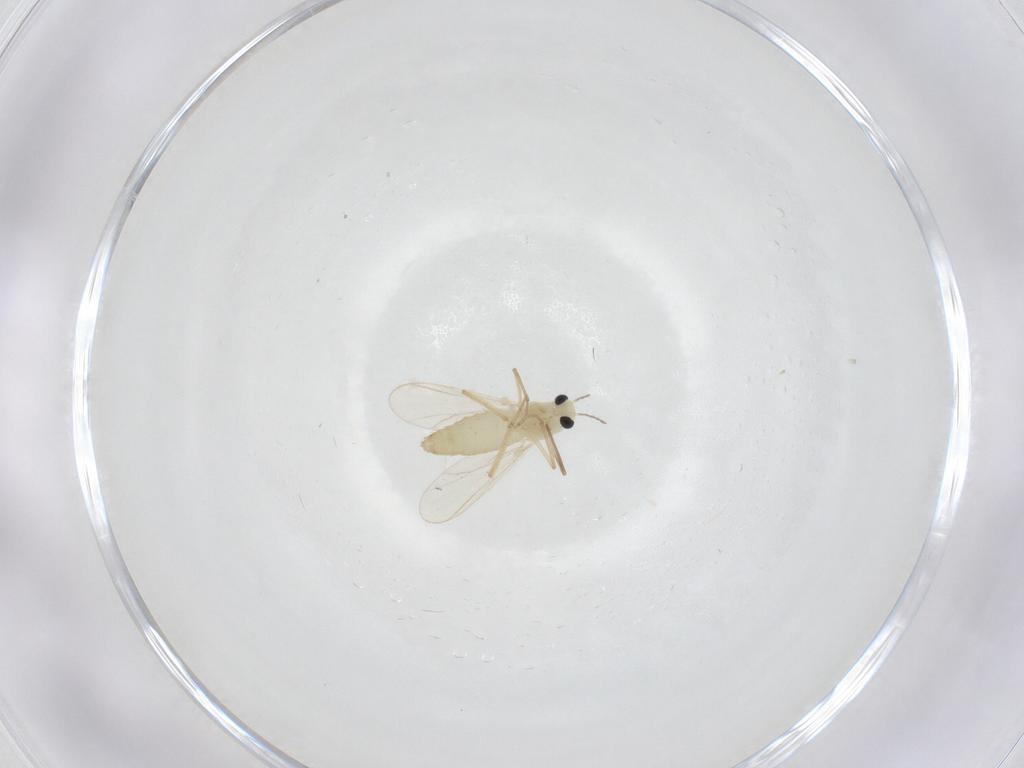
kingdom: Animalia
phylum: Arthropoda
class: Insecta
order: Diptera
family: Chironomidae
